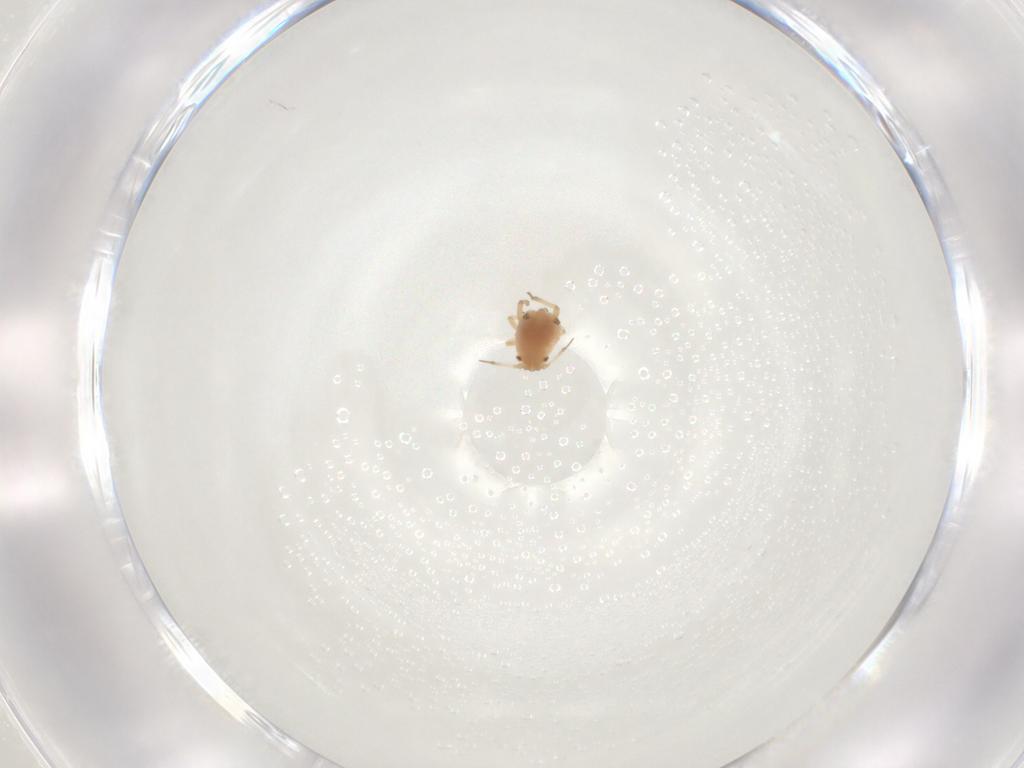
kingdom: Animalia
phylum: Arthropoda
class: Insecta
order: Hemiptera
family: Aphididae
